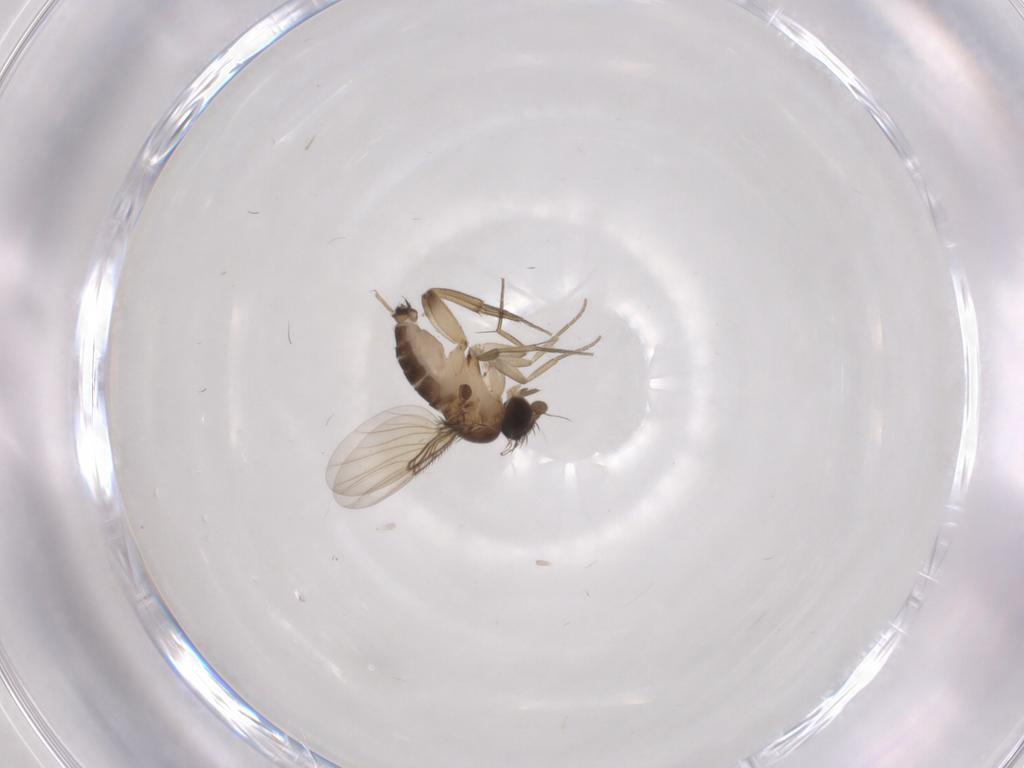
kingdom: Animalia
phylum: Arthropoda
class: Insecta
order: Diptera
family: Phoridae
